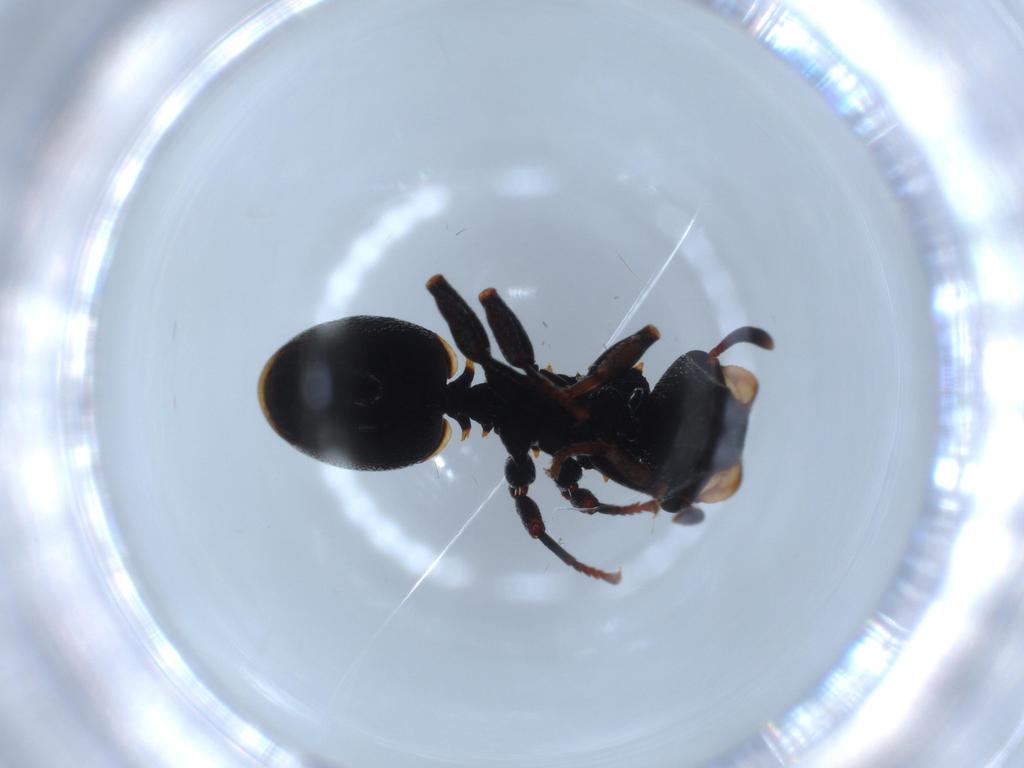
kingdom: Animalia
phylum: Arthropoda
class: Insecta
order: Hymenoptera
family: Formicidae
